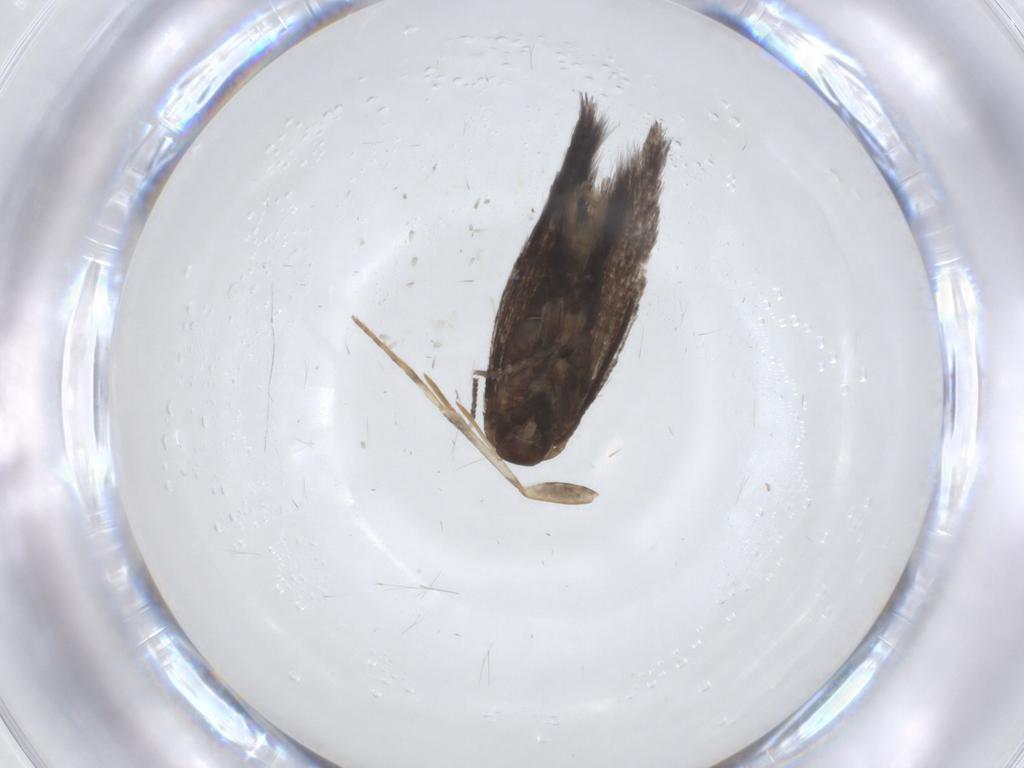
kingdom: Animalia
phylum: Arthropoda
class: Insecta
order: Lepidoptera
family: Elachistidae
